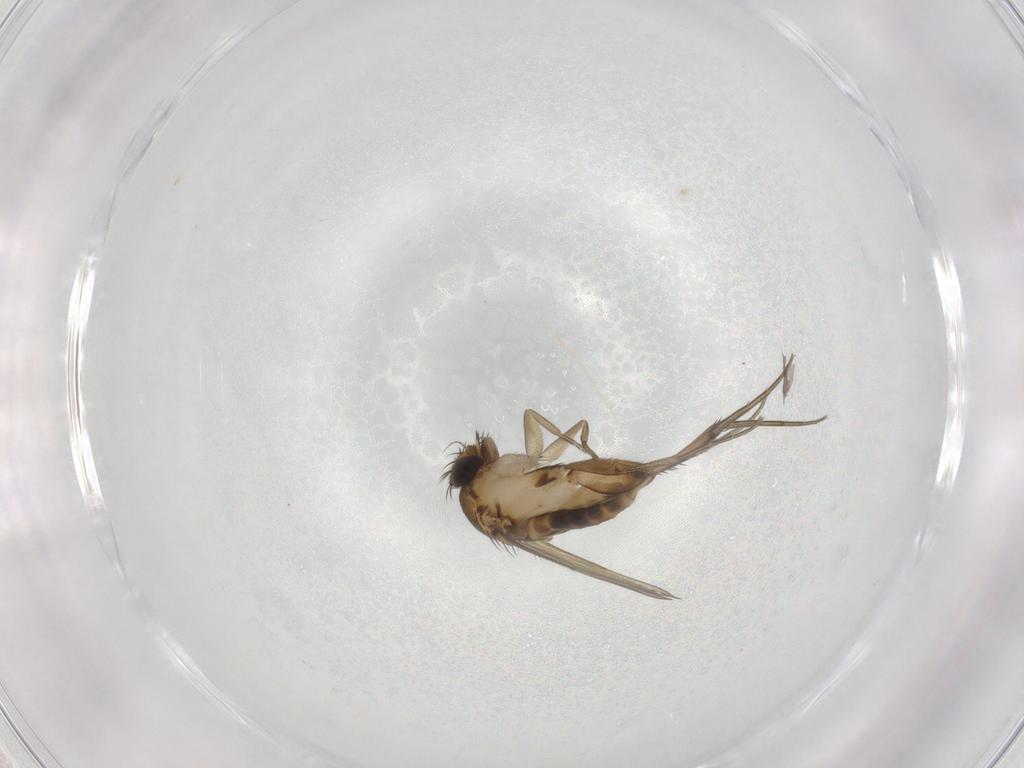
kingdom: Animalia
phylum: Arthropoda
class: Insecta
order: Diptera
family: Phoridae
